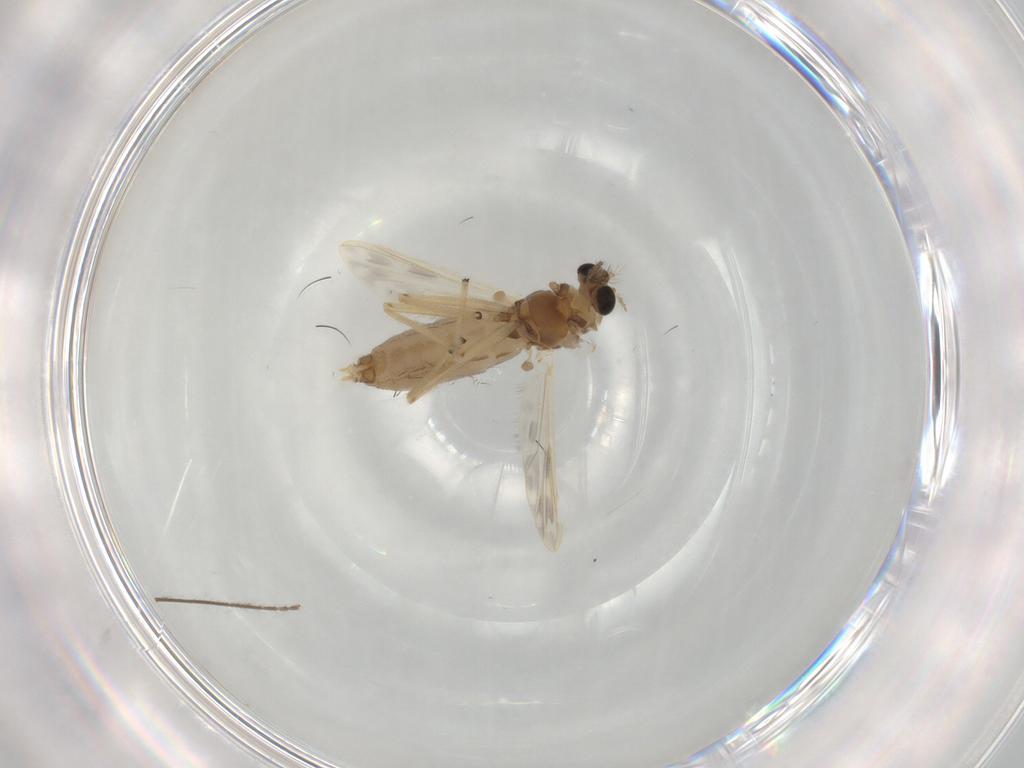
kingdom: Animalia
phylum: Arthropoda
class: Insecta
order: Diptera
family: Chironomidae
